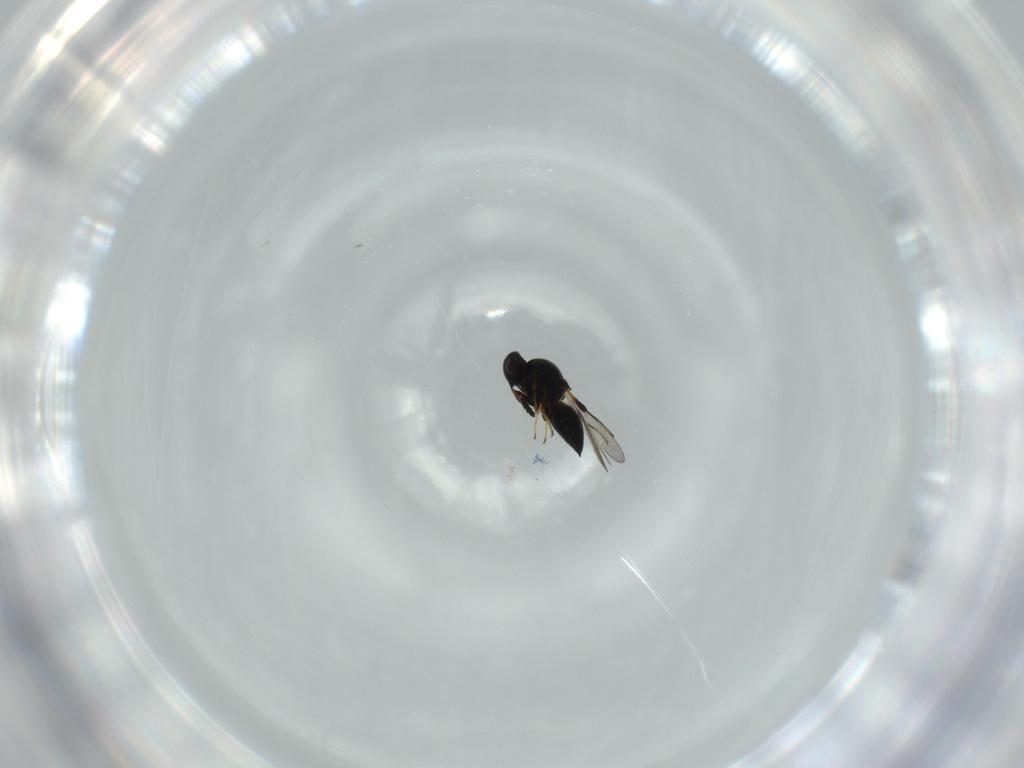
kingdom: Animalia
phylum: Arthropoda
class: Insecta
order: Hymenoptera
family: Platygastridae
